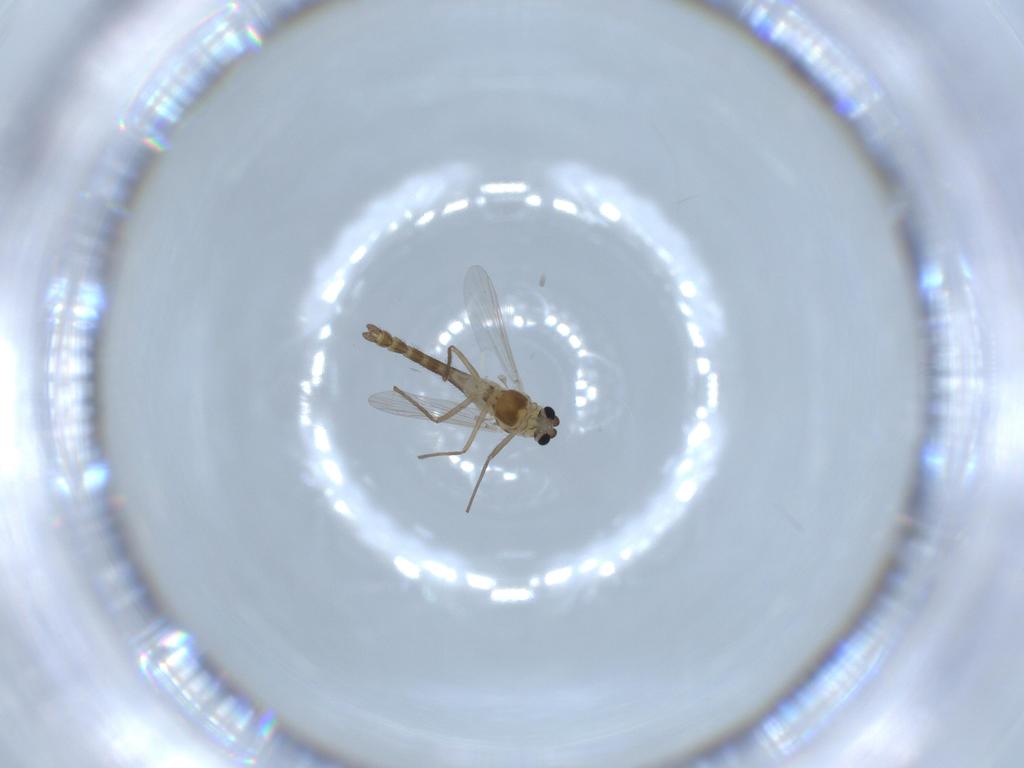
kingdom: Animalia
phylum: Arthropoda
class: Insecta
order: Diptera
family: Chironomidae
